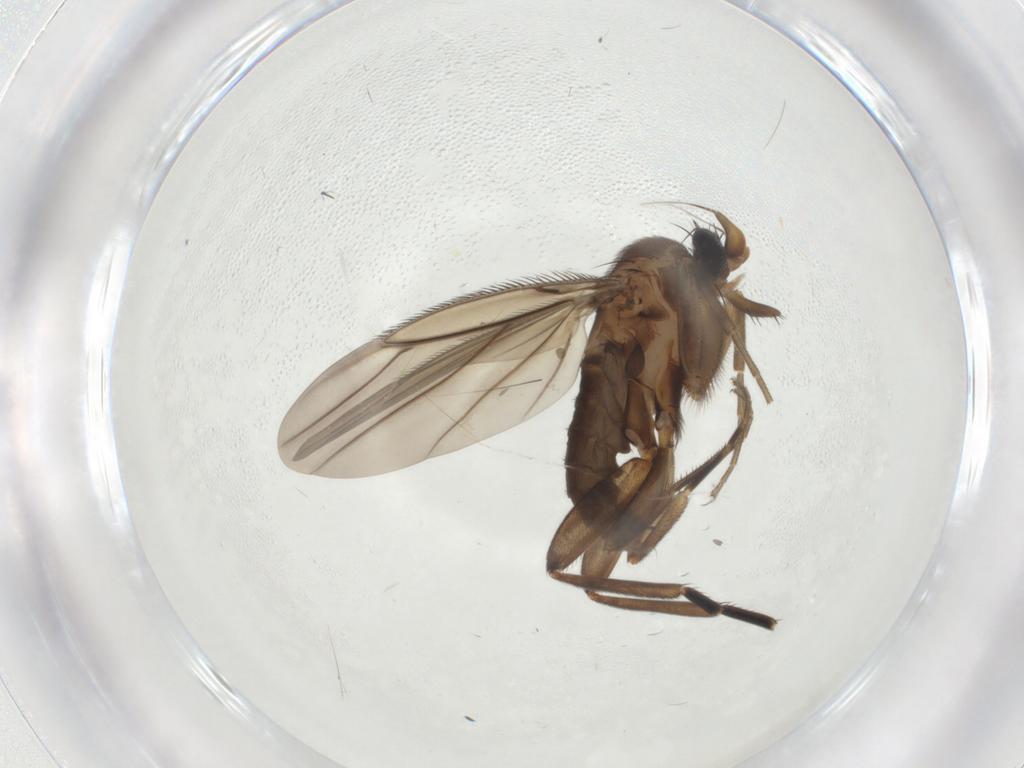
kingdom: Animalia
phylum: Arthropoda
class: Insecta
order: Diptera
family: Phoridae
